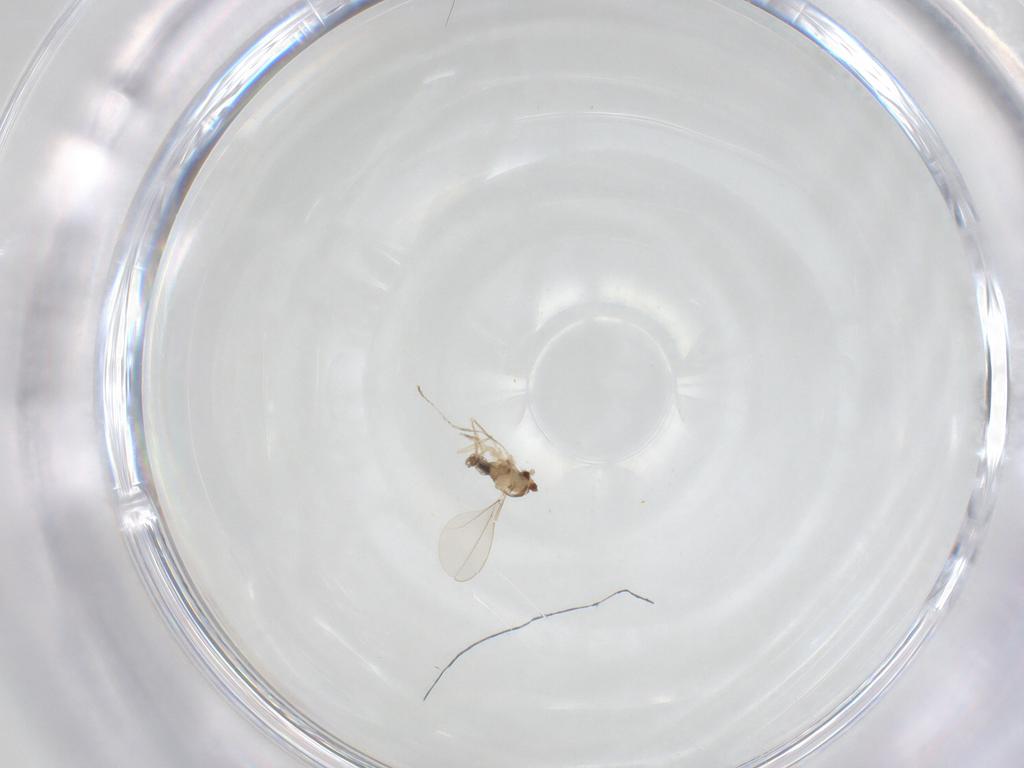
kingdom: Animalia
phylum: Arthropoda
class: Insecta
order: Diptera
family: Cecidomyiidae
